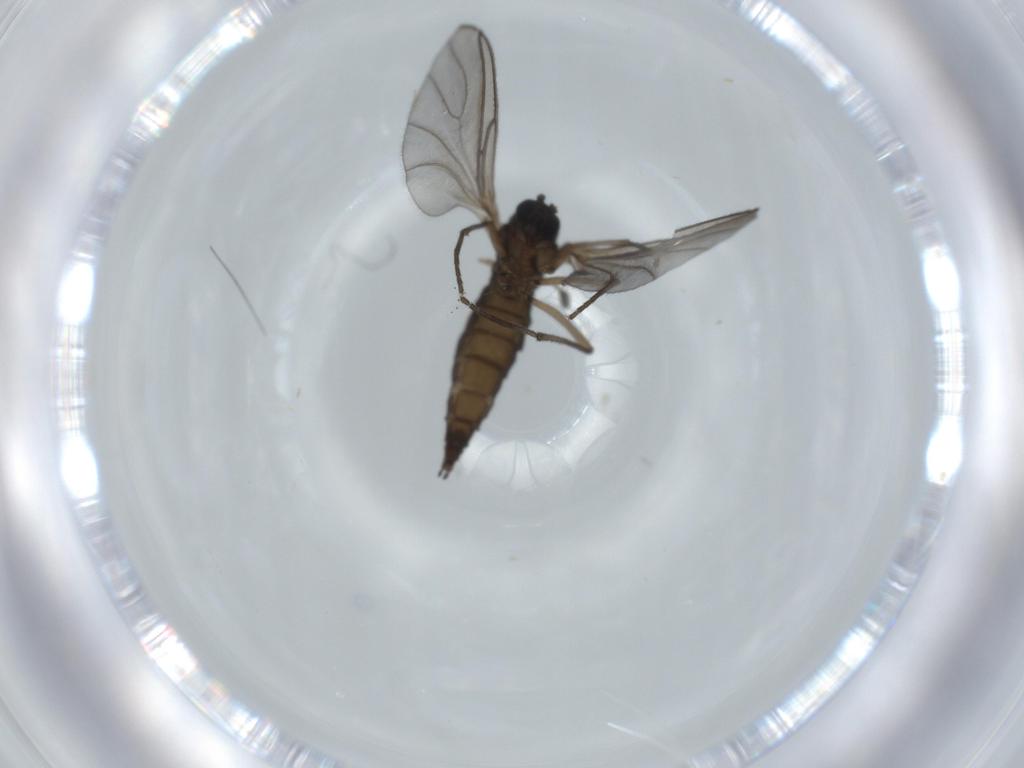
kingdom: Animalia
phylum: Arthropoda
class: Insecta
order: Diptera
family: Sciaridae
